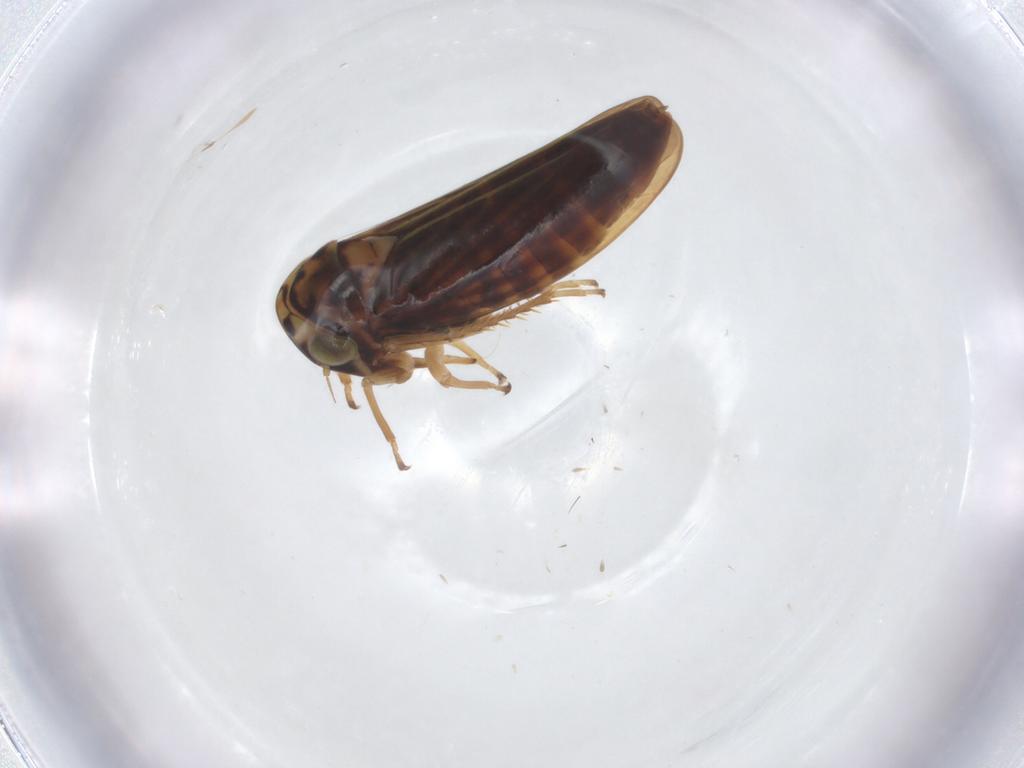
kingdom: Animalia
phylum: Arthropoda
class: Insecta
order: Hemiptera
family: Cicadellidae
